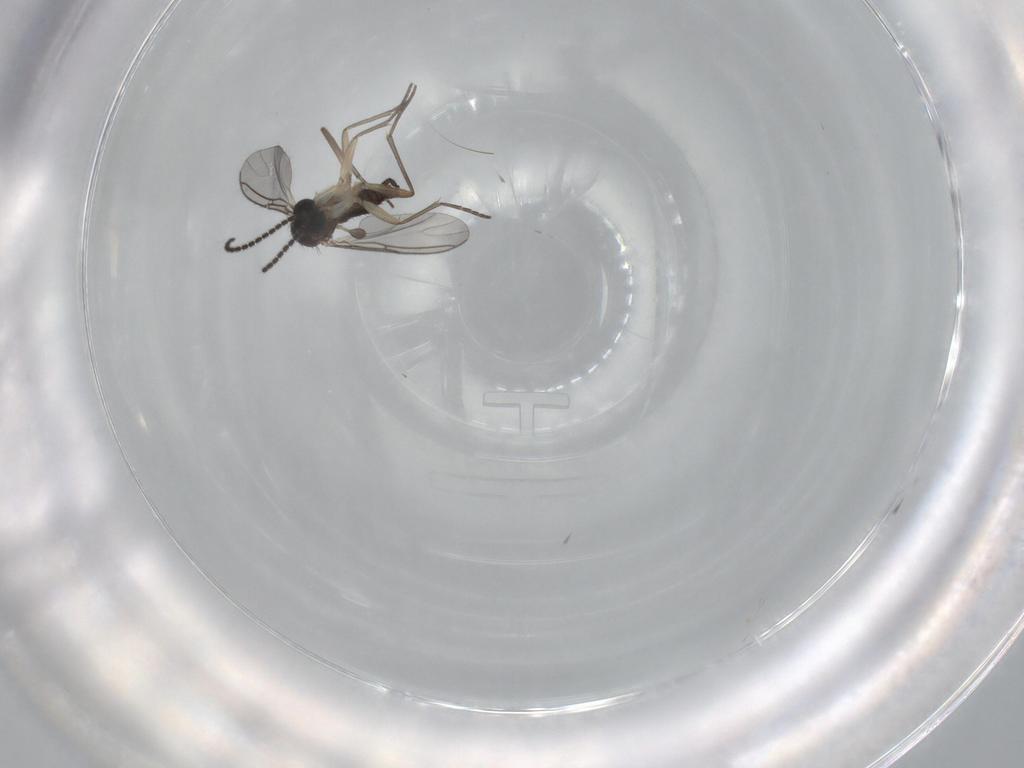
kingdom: Animalia
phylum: Arthropoda
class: Insecta
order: Diptera
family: Sciaridae
